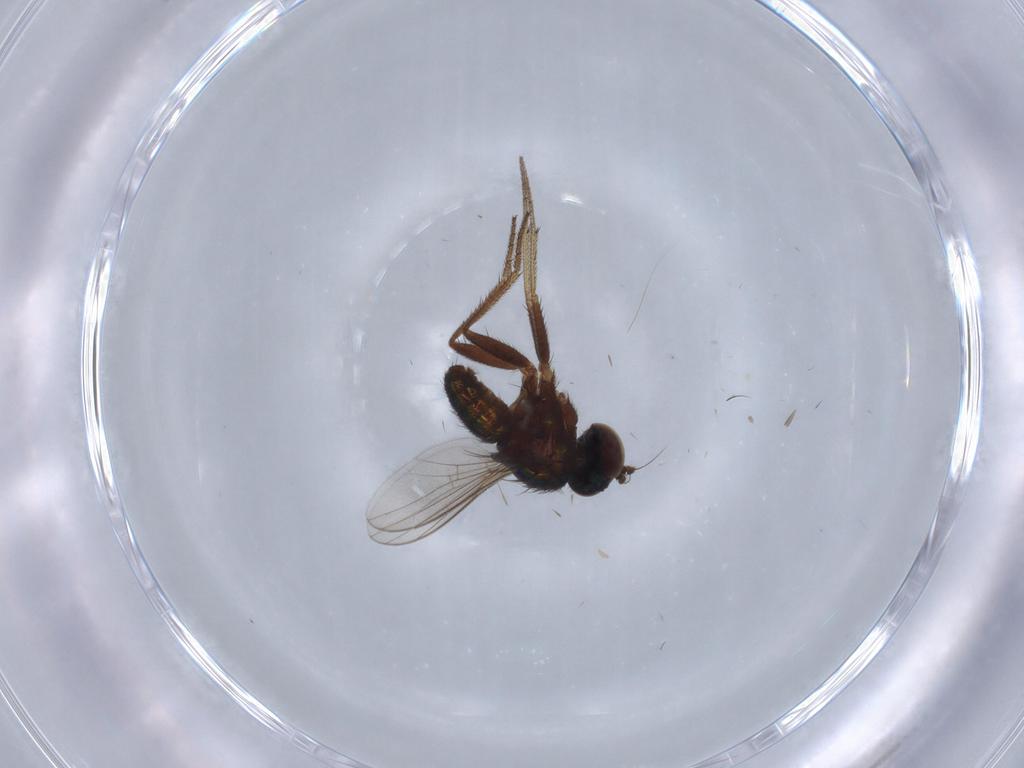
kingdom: Animalia
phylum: Arthropoda
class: Insecta
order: Diptera
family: Cecidomyiidae
